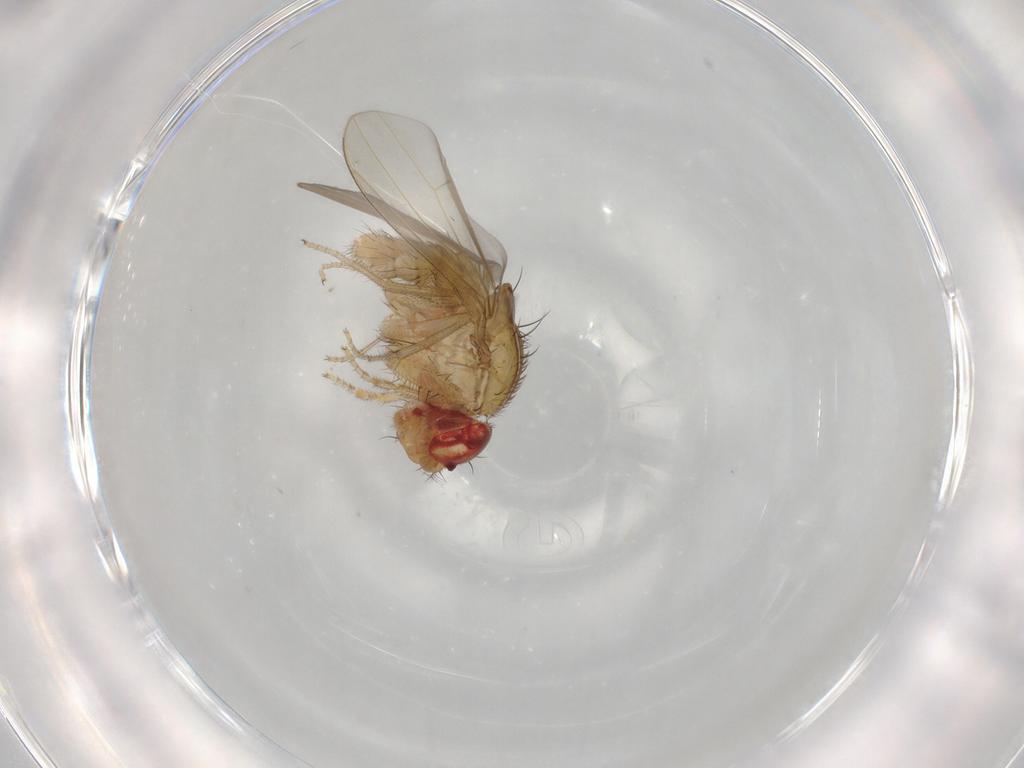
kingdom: Animalia
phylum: Arthropoda
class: Insecta
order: Diptera
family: Drosophilidae
